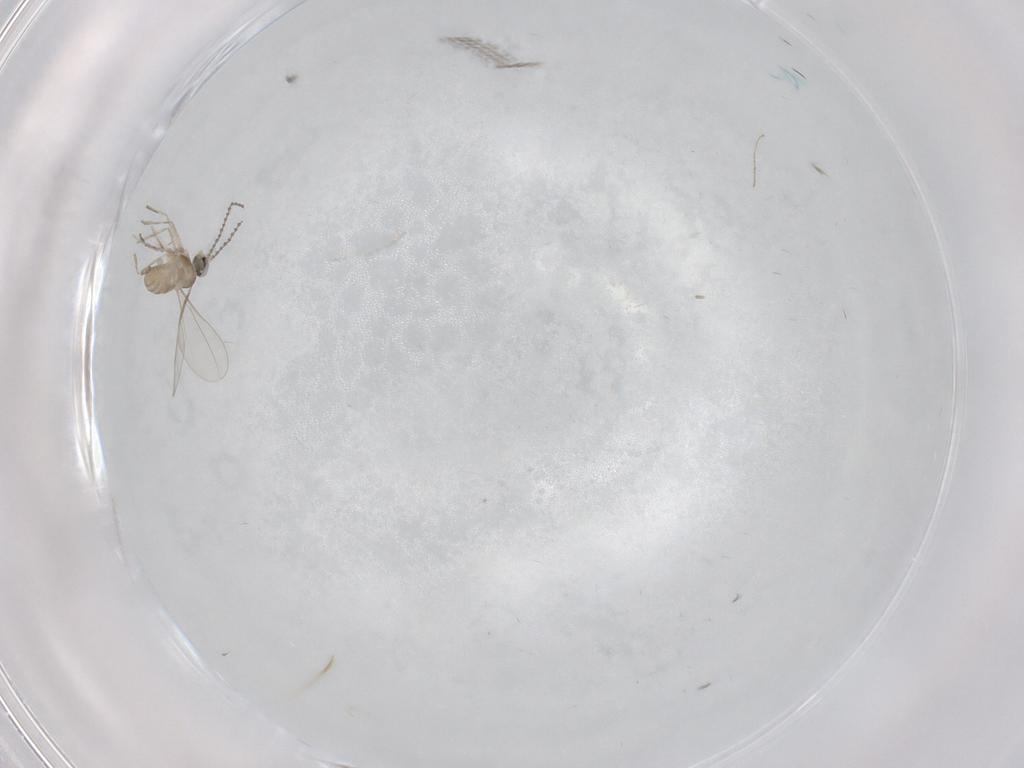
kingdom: Animalia
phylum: Arthropoda
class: Insecta
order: Diptera
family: Cecidomyiidae
